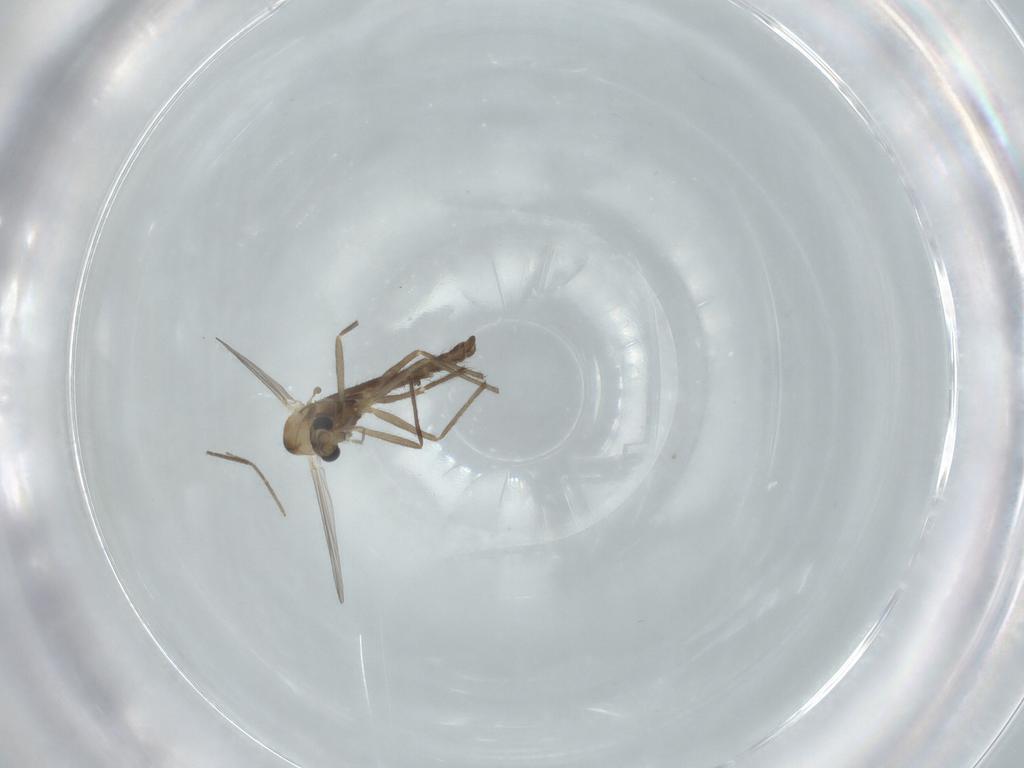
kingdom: Animalia
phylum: Arthropoda
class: Insecta
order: Diptera
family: Chironomidae
